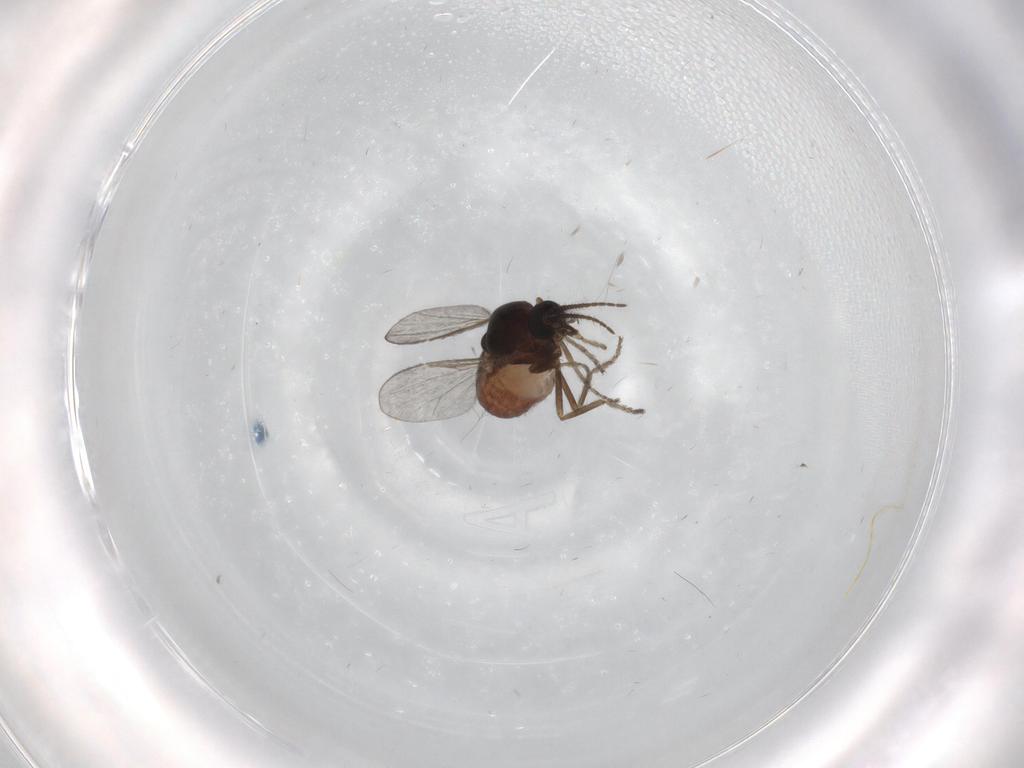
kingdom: Animalia
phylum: Arthropoda
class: Insecta
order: Diptera
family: Ceratopogonidae
